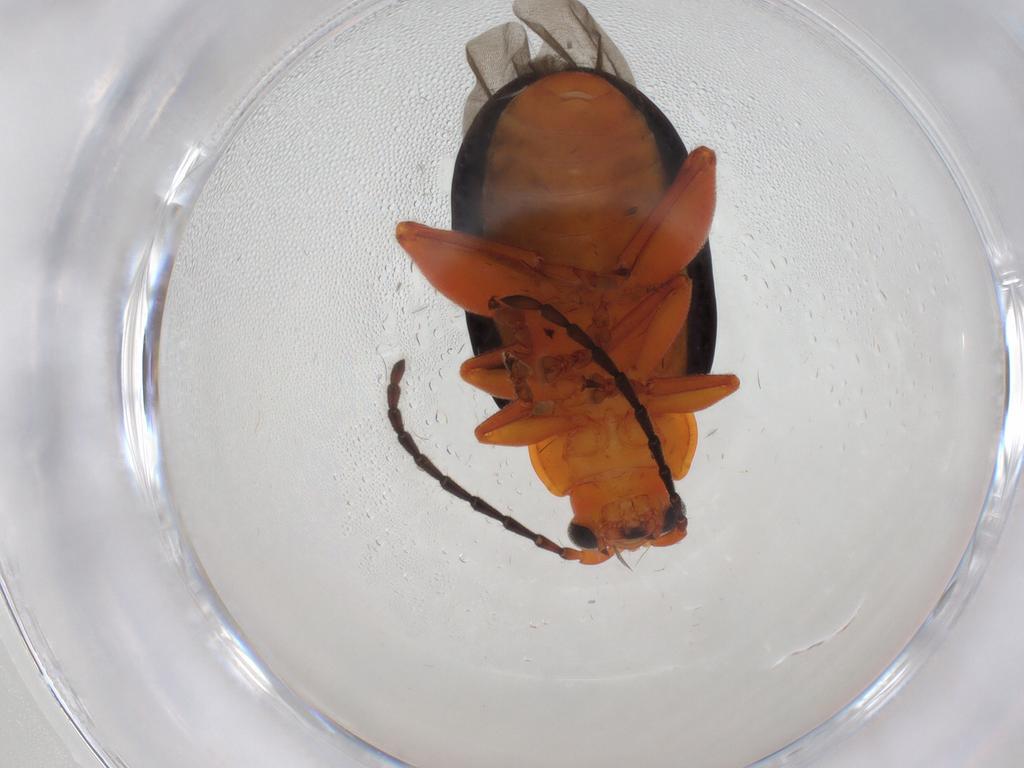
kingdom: Animalia
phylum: Arthropoda
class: Insecta
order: Coleoptera
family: Chrysomelidae
